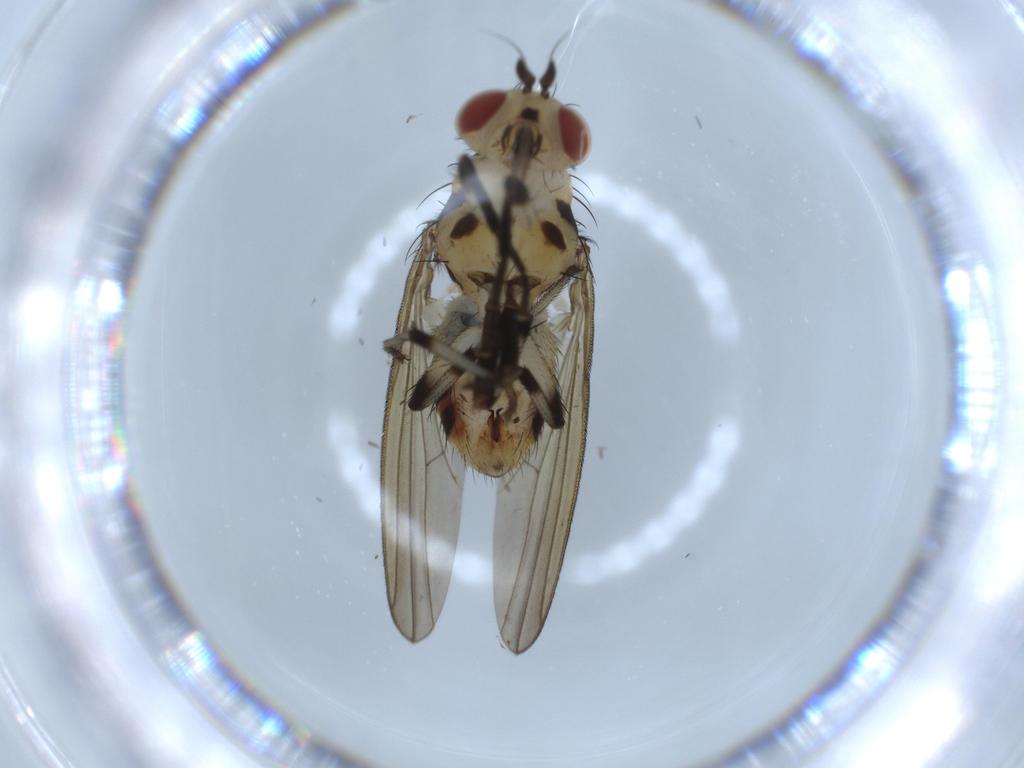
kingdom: Animalia
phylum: Arthropoda
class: Insecta
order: Diptera
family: Lauxaniidae
